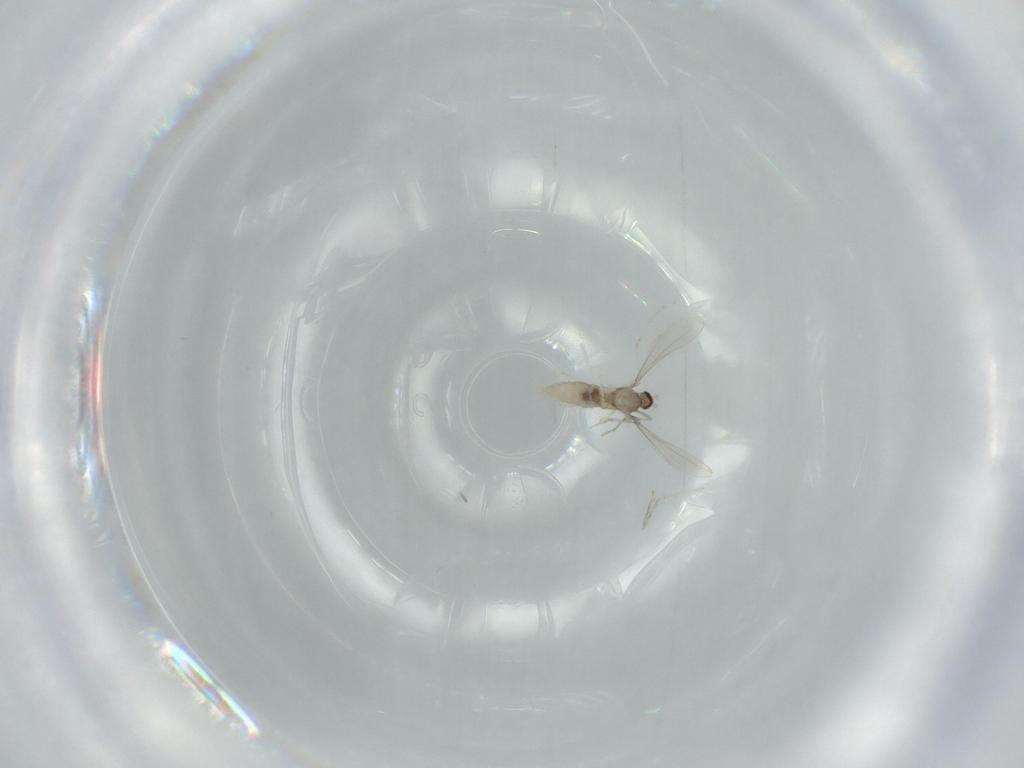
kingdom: Animalia
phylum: Arthropoda
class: Insecta
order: Diptera
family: Cecidomyiidae
